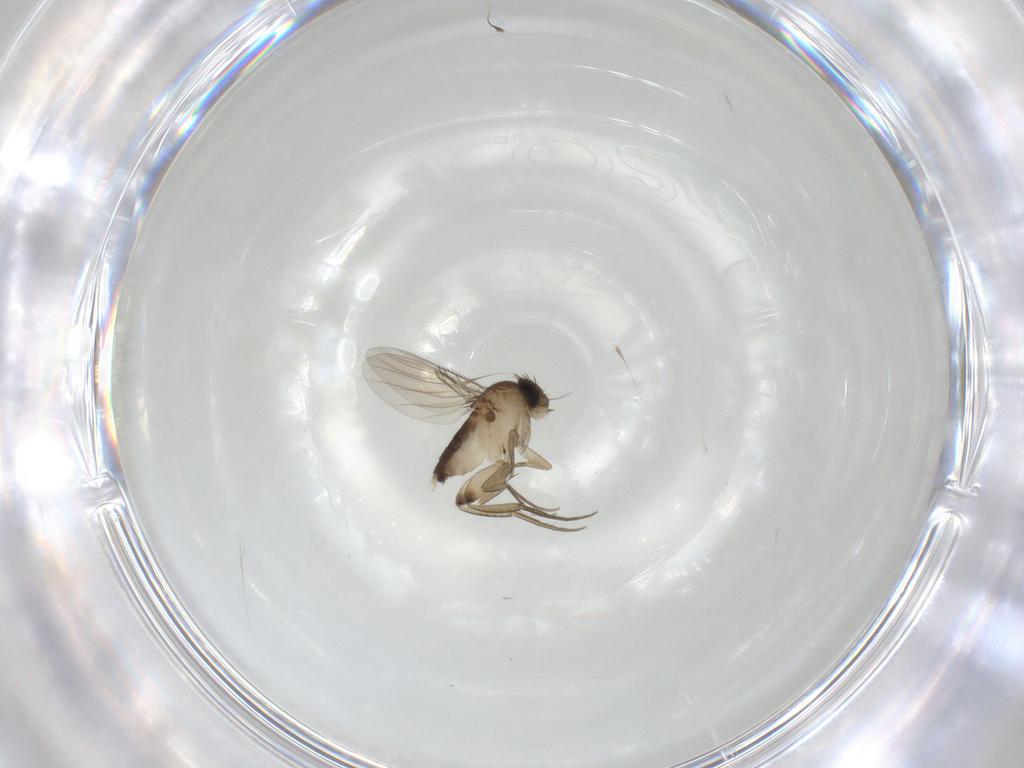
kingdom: Animalia
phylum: Arthropoda
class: Insecta
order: Diptera
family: Phoridae
